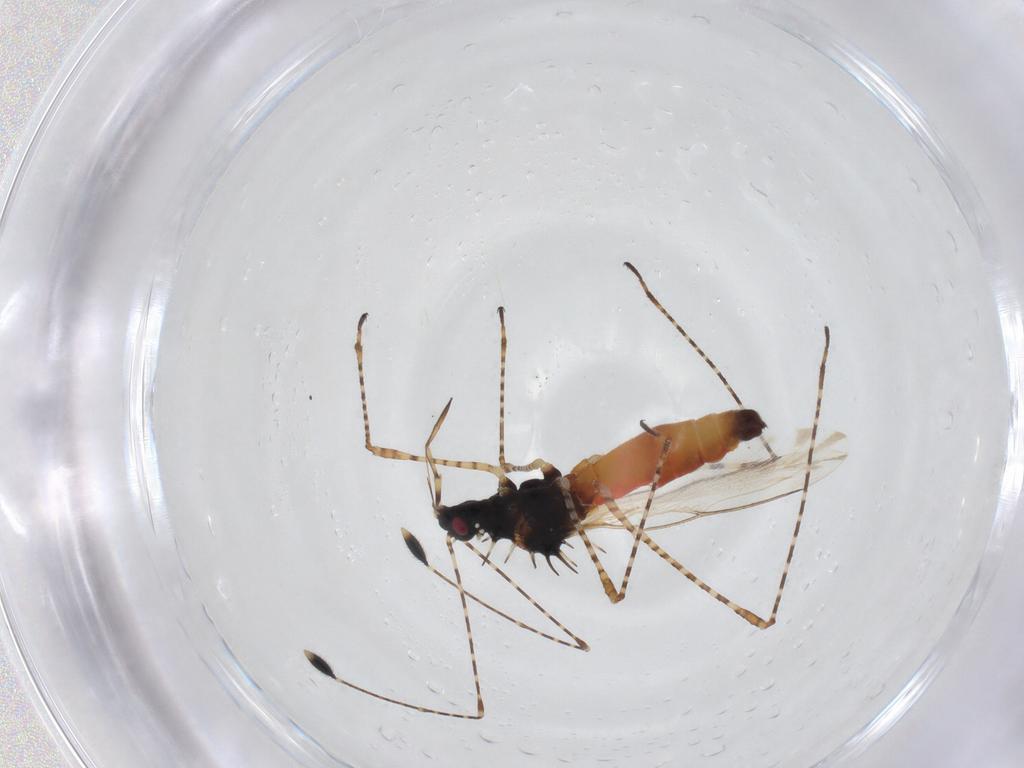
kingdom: Animalia
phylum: Arthropoda
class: Insecta
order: Hemiptera
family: Berytidae
